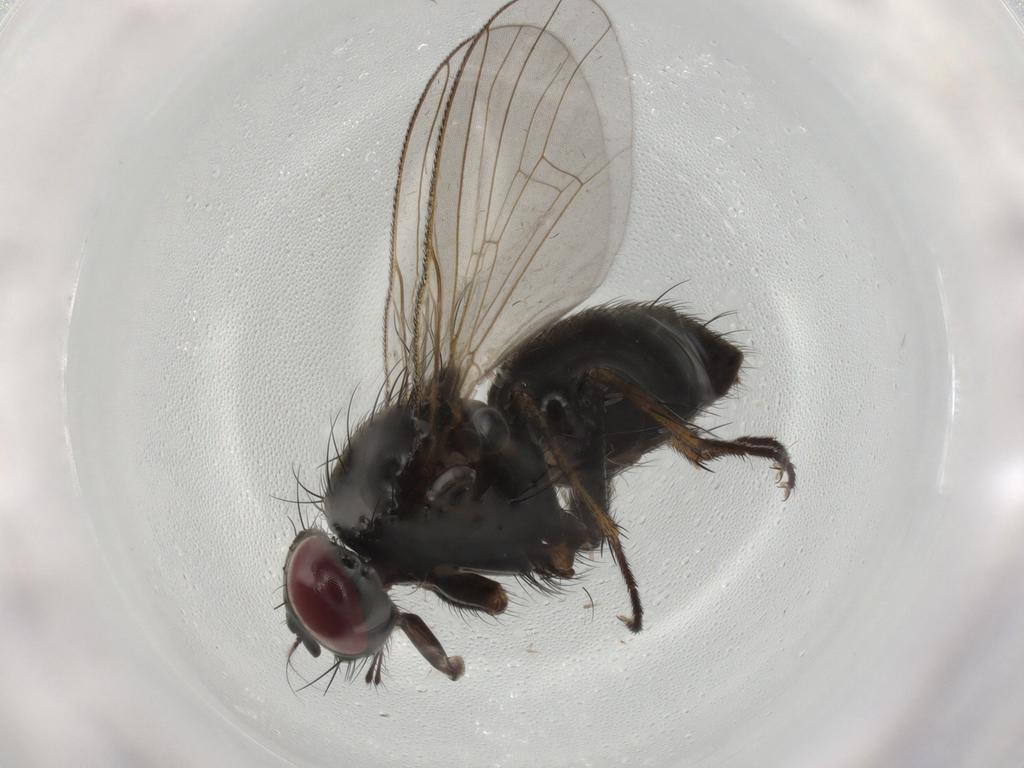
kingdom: Animalia
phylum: Arthropoda
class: Insecta
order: Diptera
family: Muscidae
